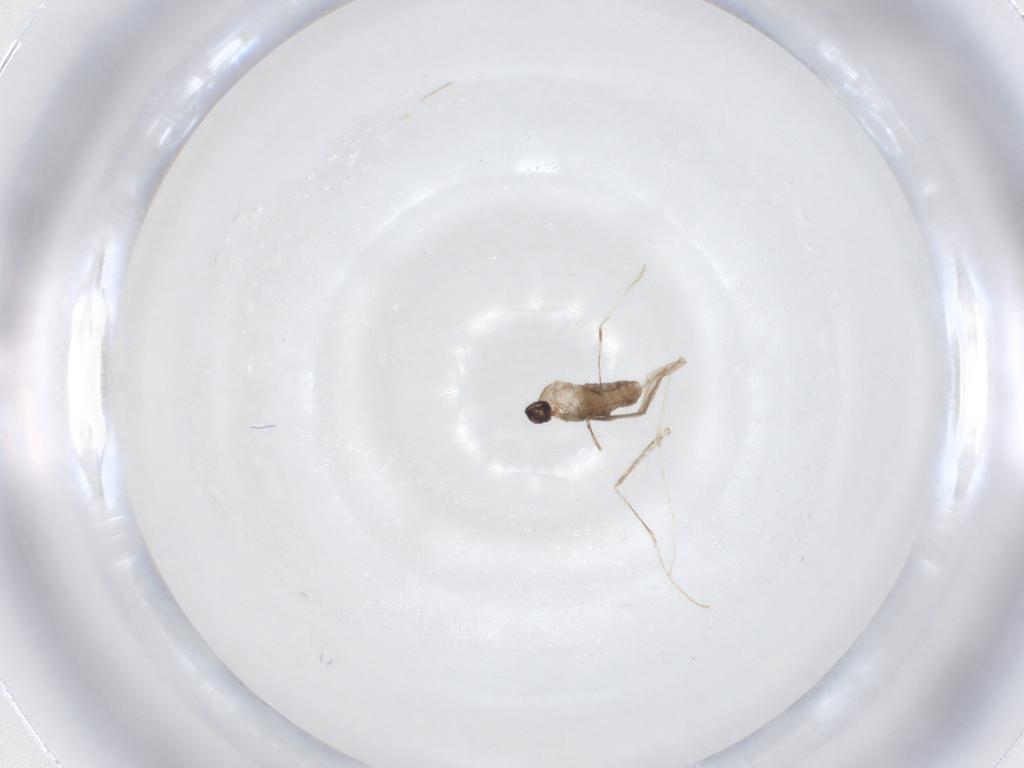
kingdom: Animalia
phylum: Arthropoda
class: Insecta
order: Diptera
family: Cecidomyiidae
